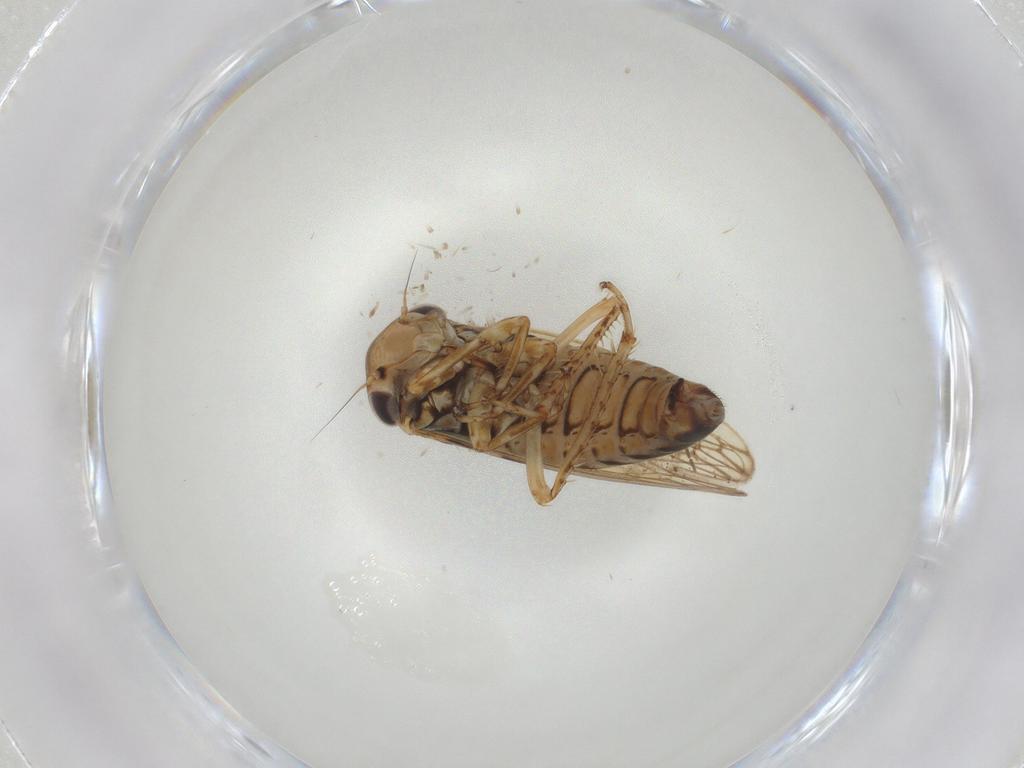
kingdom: Animalia
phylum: Arthropoda
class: Insecta
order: Hemiptera
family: Cicadellidae
